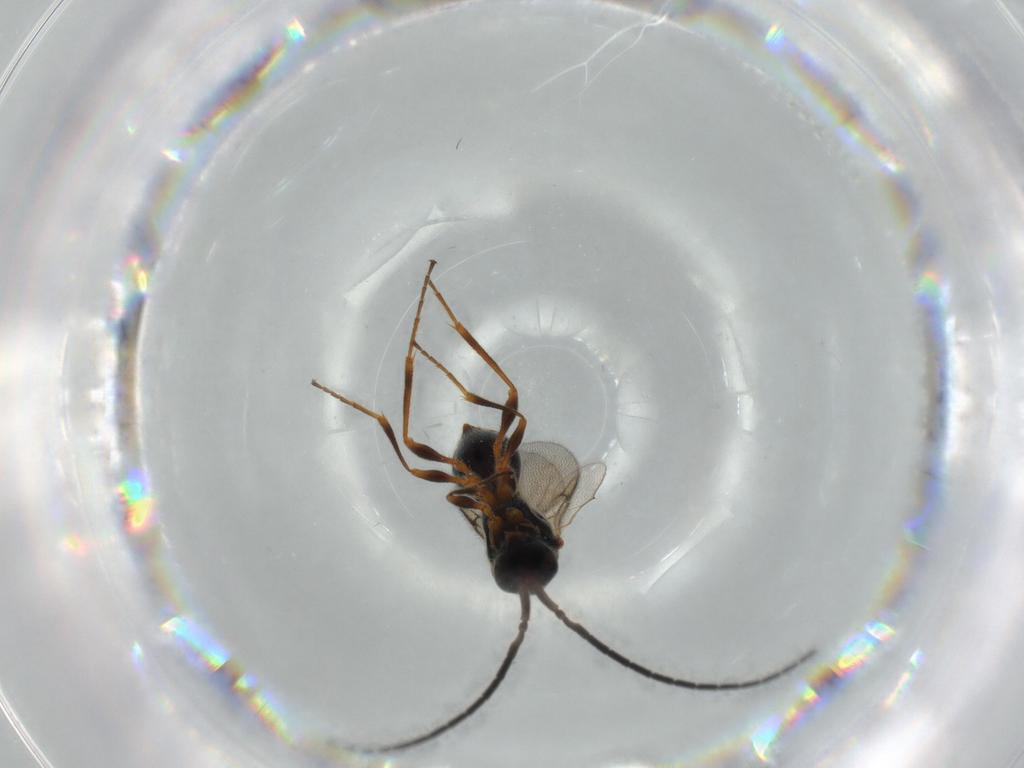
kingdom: Animalia
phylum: Arthropoda
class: Insecta
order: Hymenoptera
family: Diapriidae
